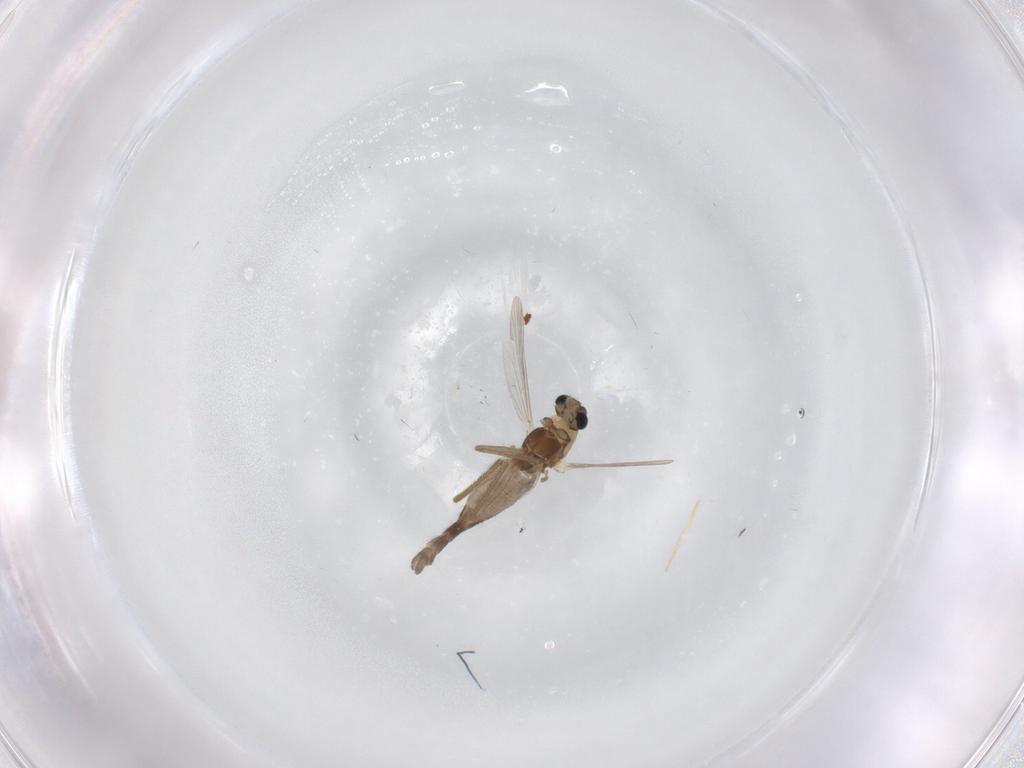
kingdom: Animalia
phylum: Arthropoda
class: Insecta
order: Diptera
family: Chironomidae
